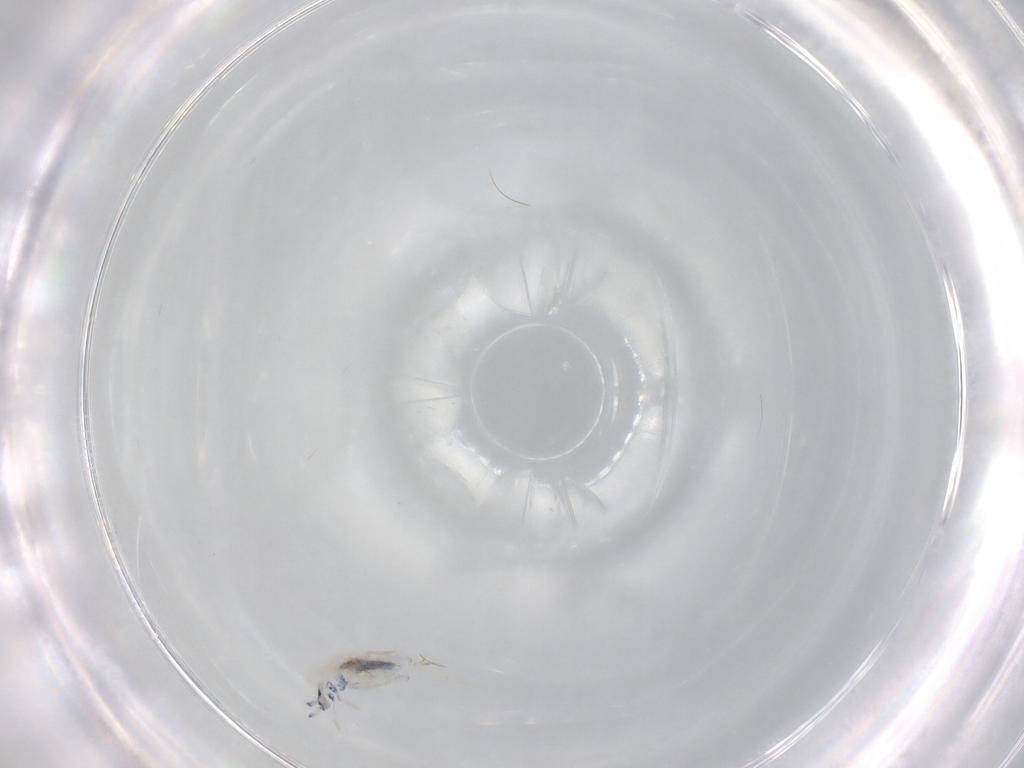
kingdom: Animalia
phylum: Arthropoda
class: Collembola
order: Entomobryomorpha
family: Entomobryidae
